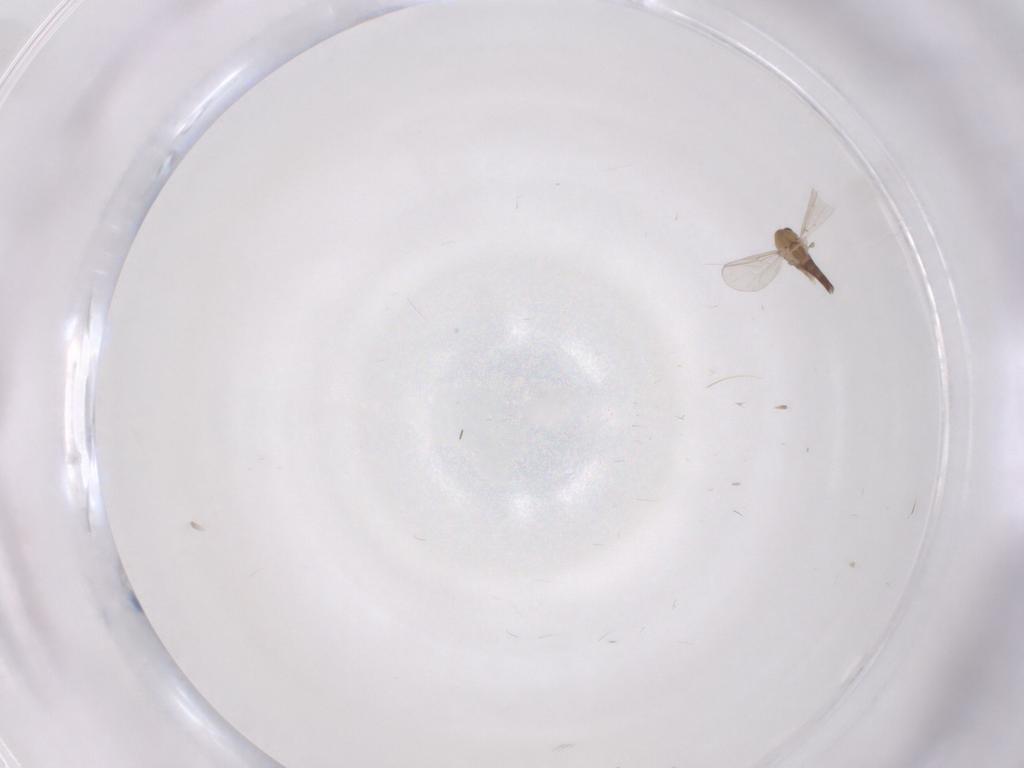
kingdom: Animalia
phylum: Arthropoda
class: Insecta
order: Diptera
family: Cecidomyiidae
